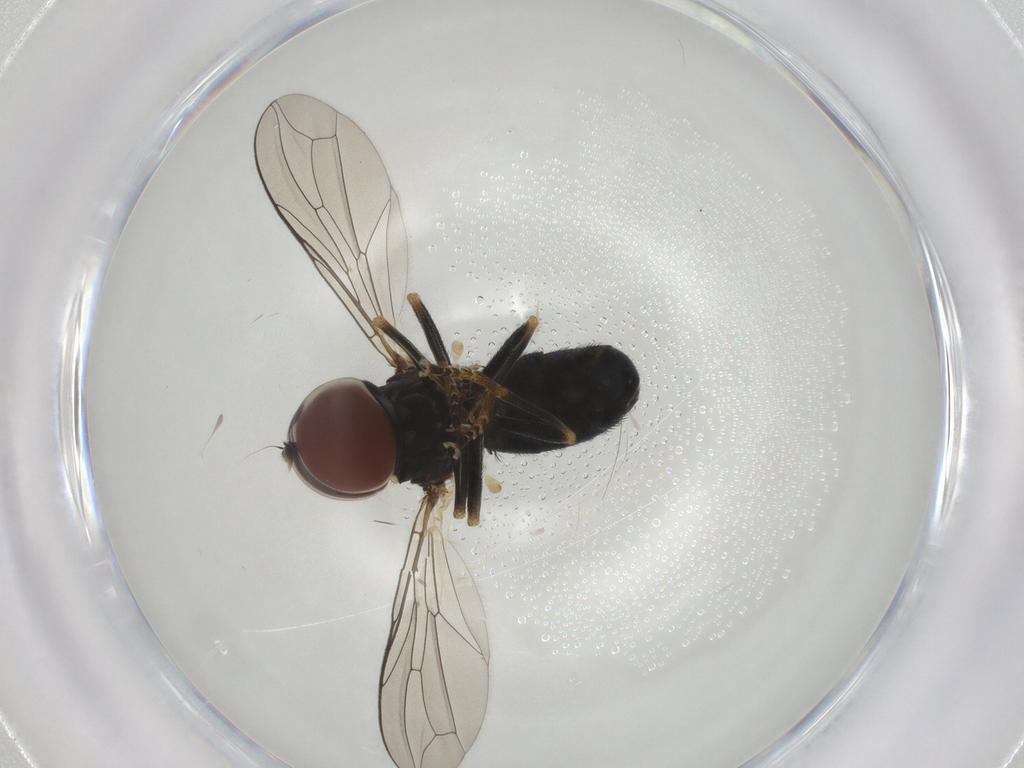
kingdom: Animalia
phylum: Arthropoda
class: Insecta
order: Diptera
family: Pipunculidae
